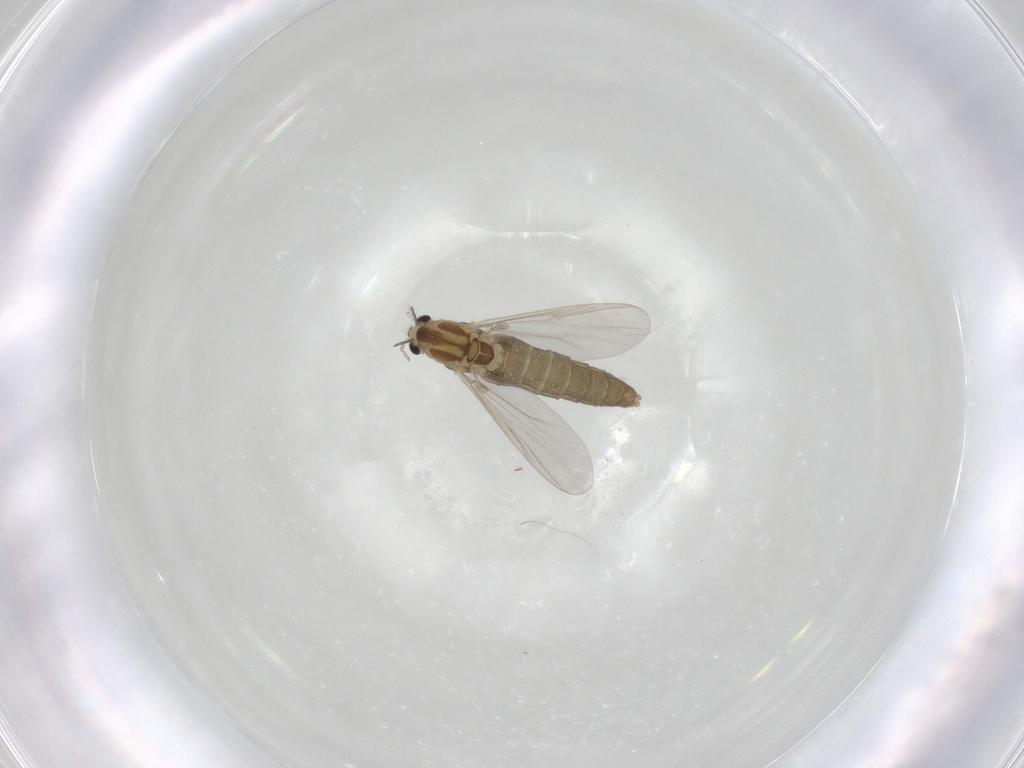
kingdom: Animalia
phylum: Arthropoda
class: Insecta
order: Diptera
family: Chironomidae
